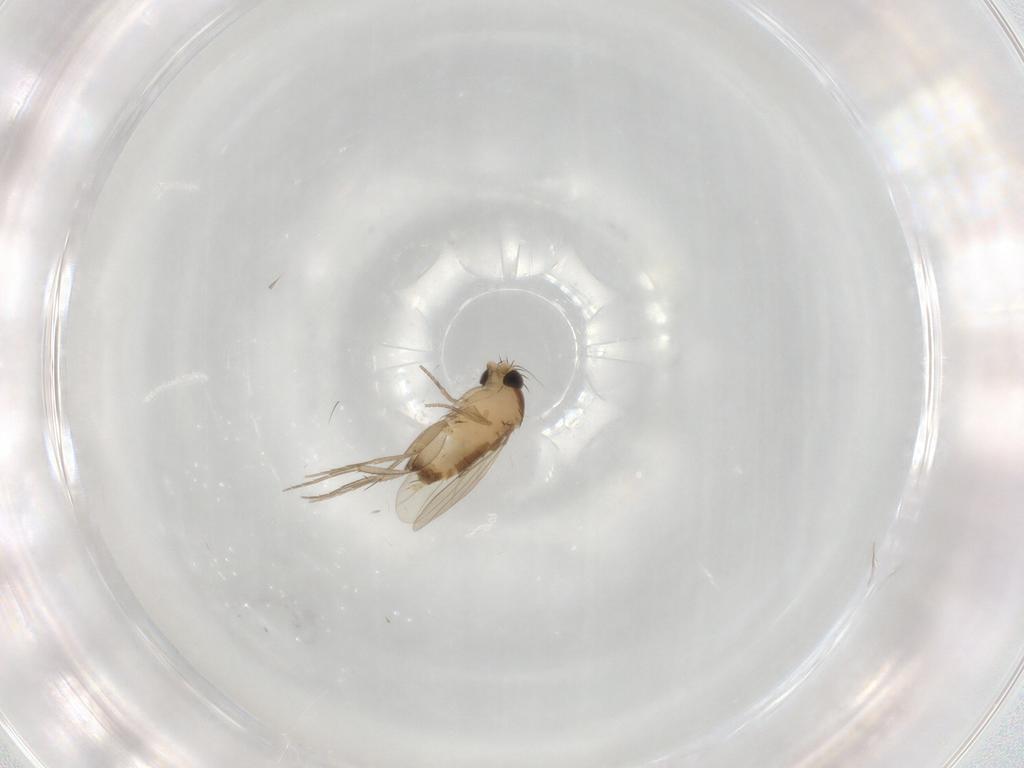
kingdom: Animalia
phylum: Arthropoda
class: Insecta
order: Diptera
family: Phoridae
